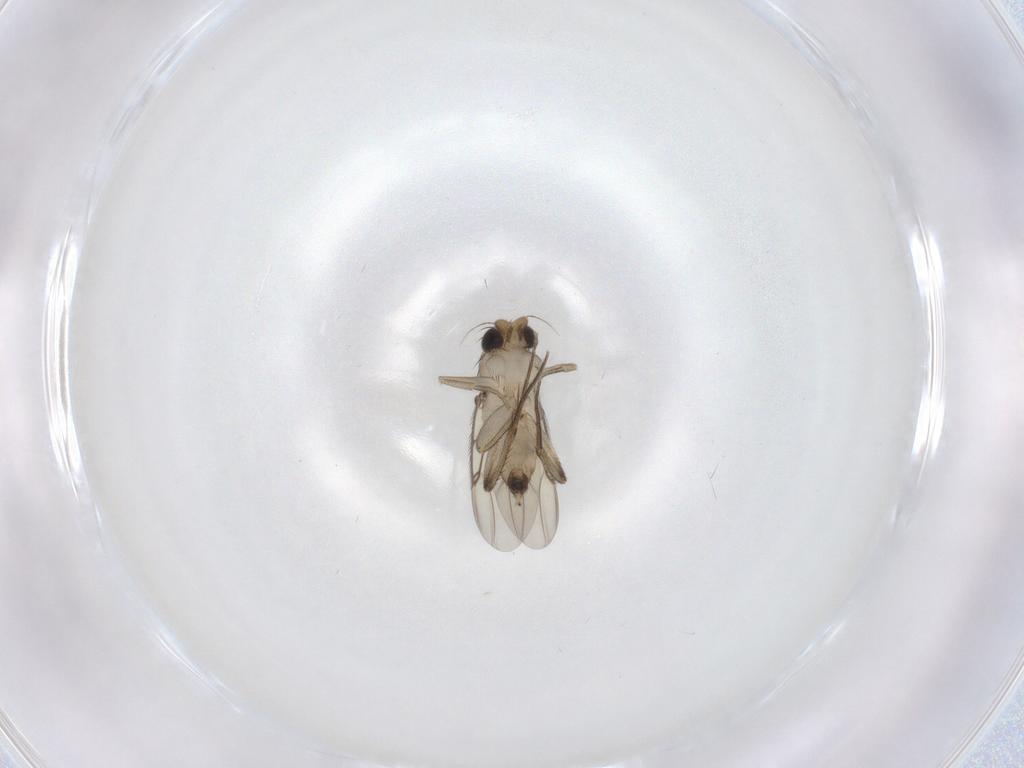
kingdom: Animalia
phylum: Arthropoda
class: Insecta
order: Diptera
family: Phoridae
